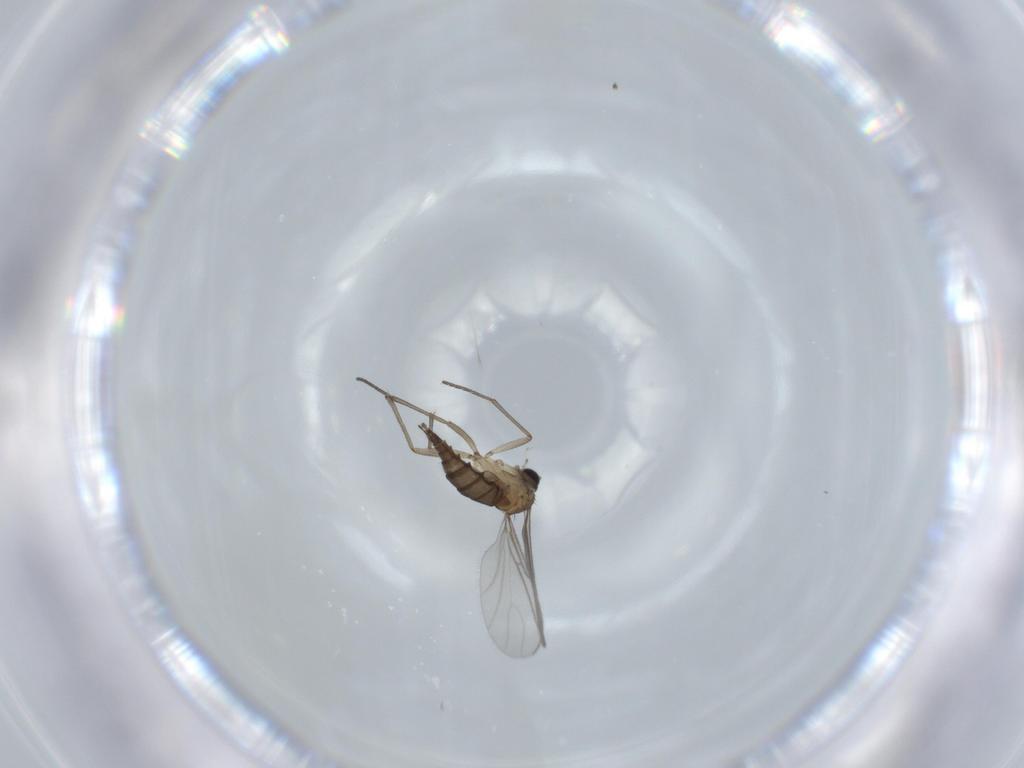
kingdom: Animalia
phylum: Arthropoda
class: Insecta
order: Diptera
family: Sciaridae
